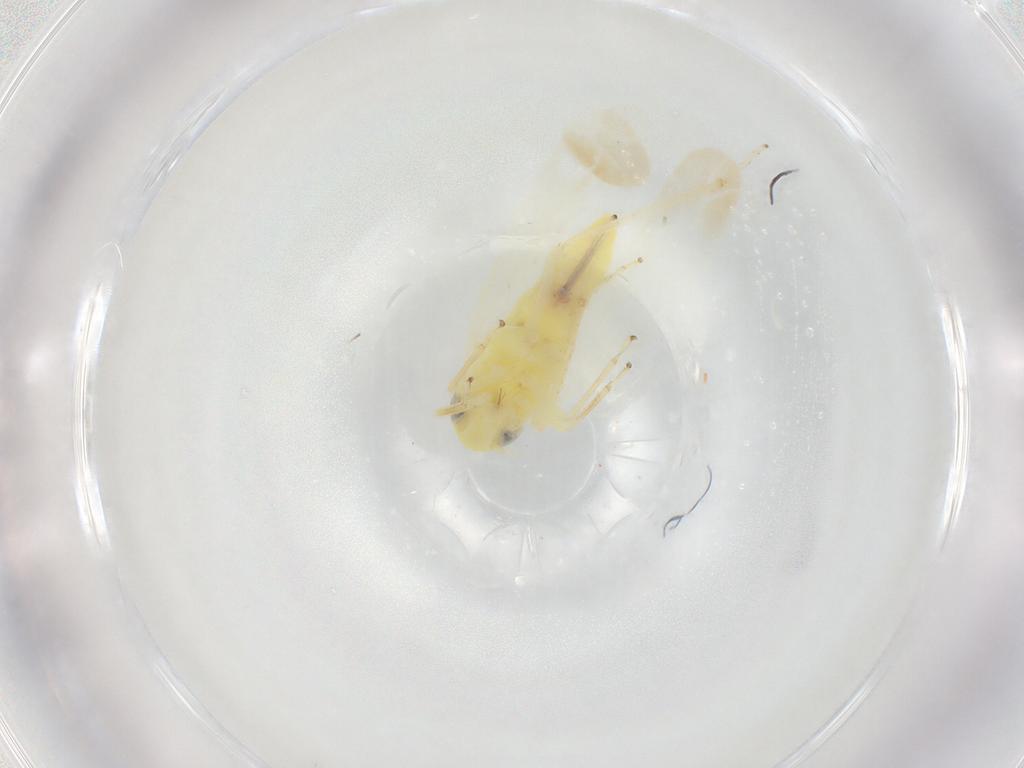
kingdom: Animalia
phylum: Arthropoda
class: Insecta
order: Hemiptera
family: Cicadellidae
